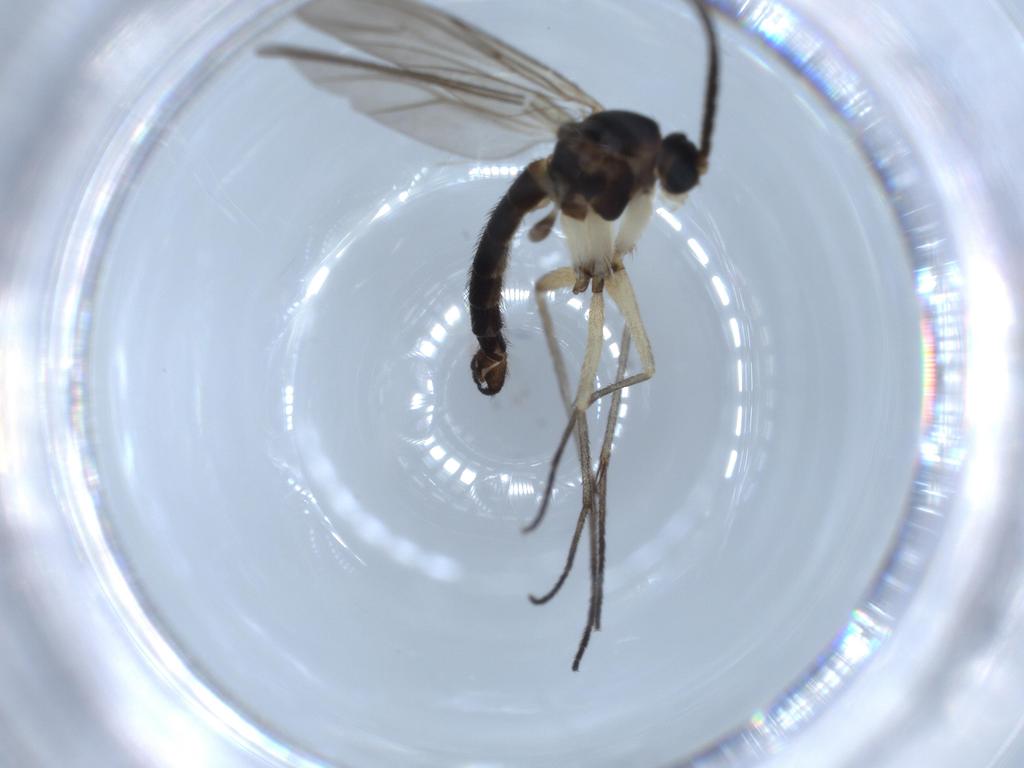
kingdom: Animalia
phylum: Arthropoda
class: Insecta
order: Diptera
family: Sciaridae
